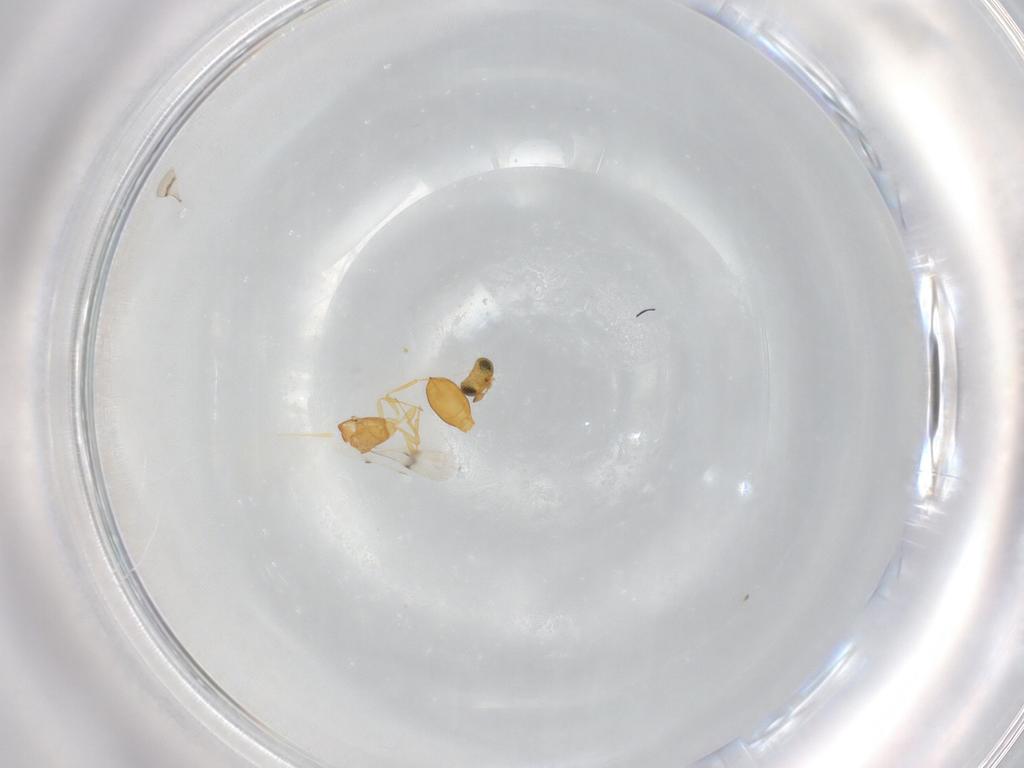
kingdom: Animalia
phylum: Arthropoda
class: Insecta
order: Hymenoptera
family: Scelionidae
